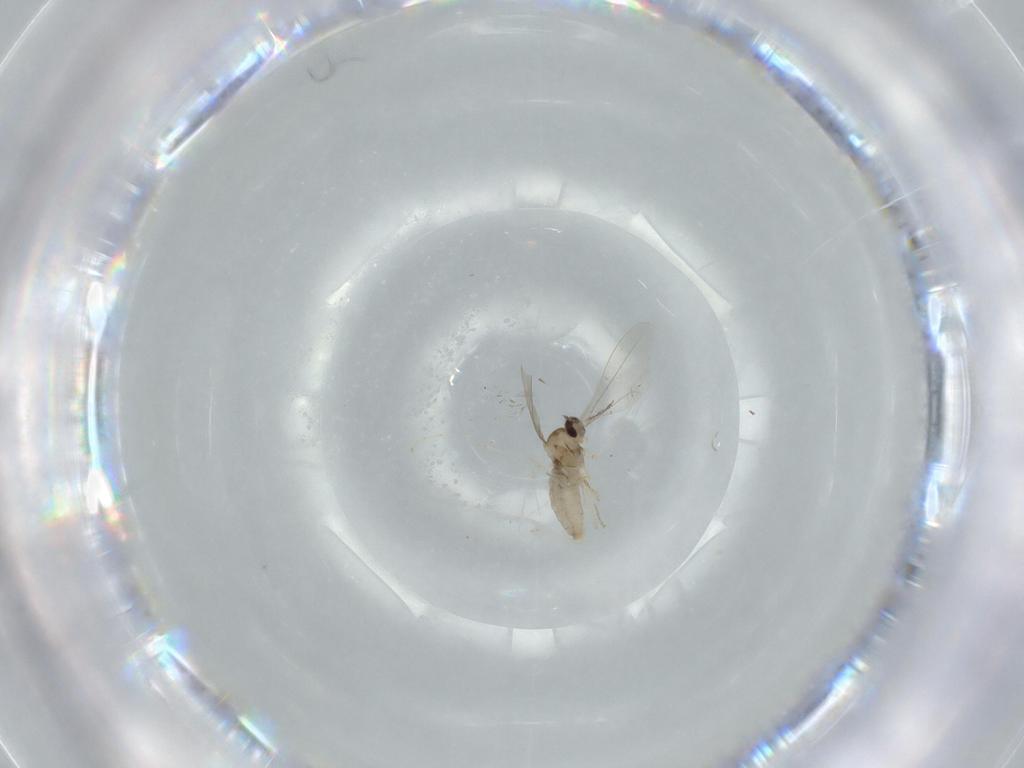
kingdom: Animalia
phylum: Arthropoda
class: Insecta
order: Diptera
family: Cecidomyiidae
